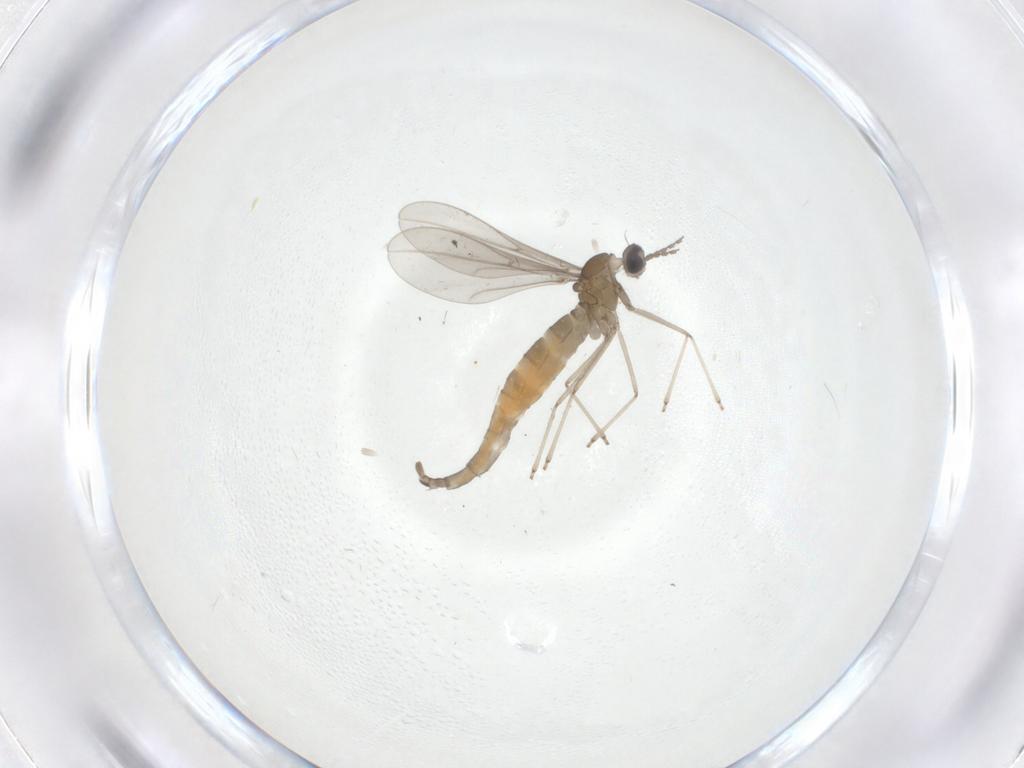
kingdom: Animalia
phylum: Arthropoda
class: Insecta
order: Diptera
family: Cecidomyiidae
